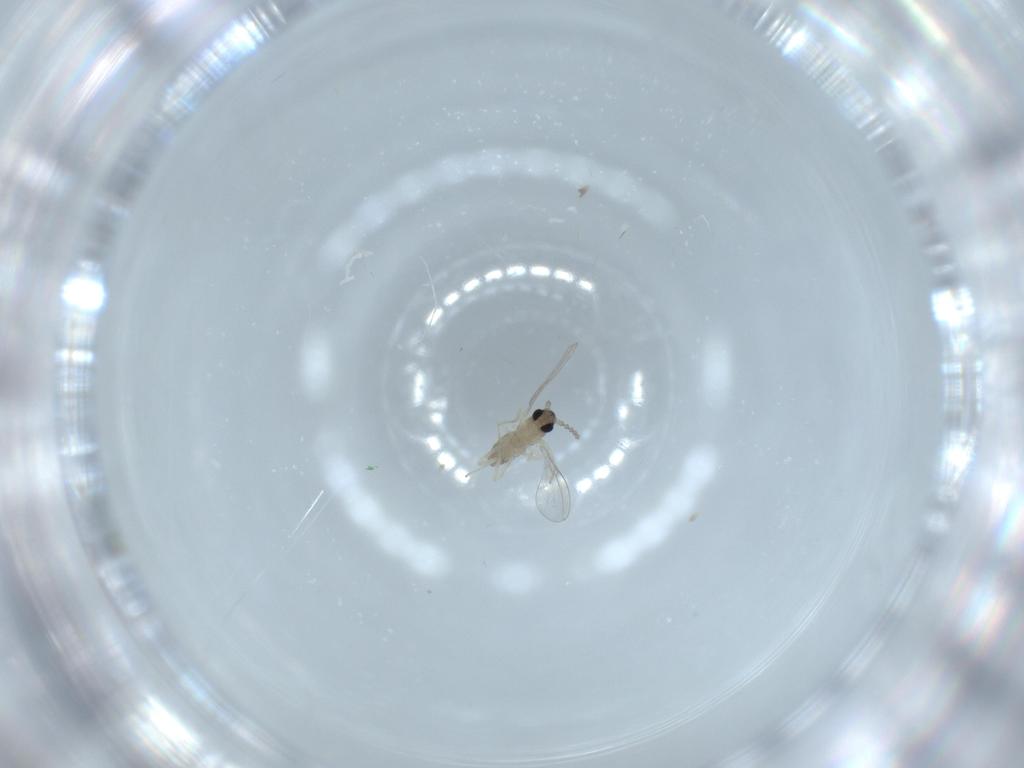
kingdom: Animalia
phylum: Arthropoda
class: Insecta
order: Diptera
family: Cecidomyiidae
